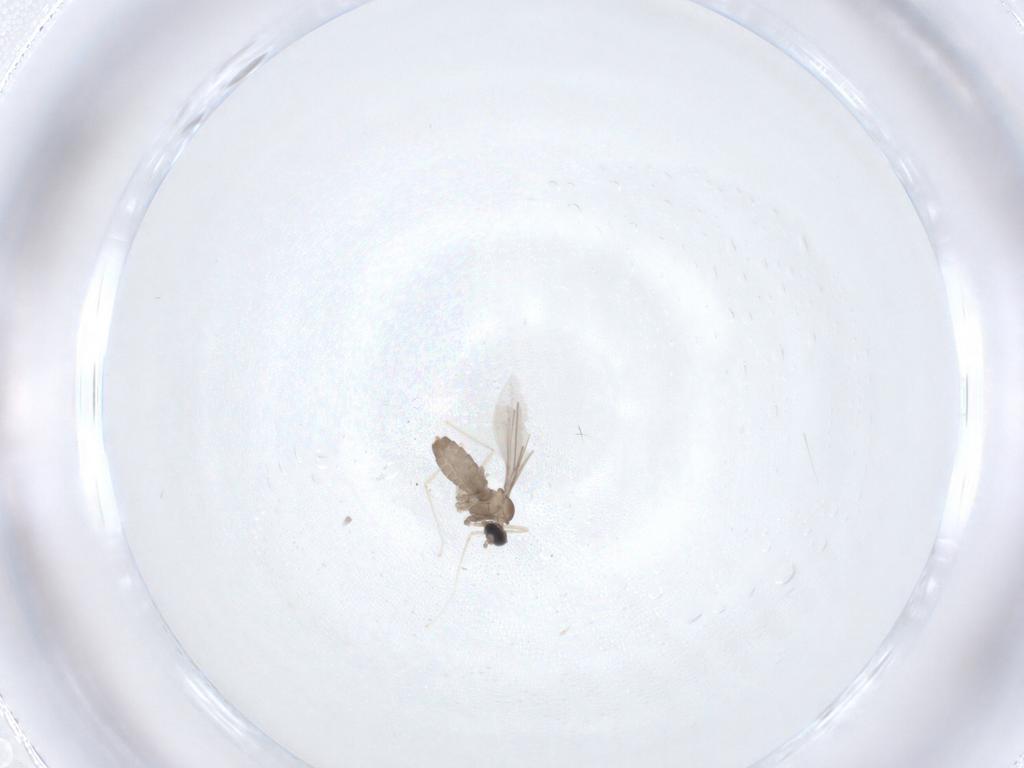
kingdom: Animalia
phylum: Arthropoda
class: Insecta
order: Diptera
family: Cecidomyiidae
